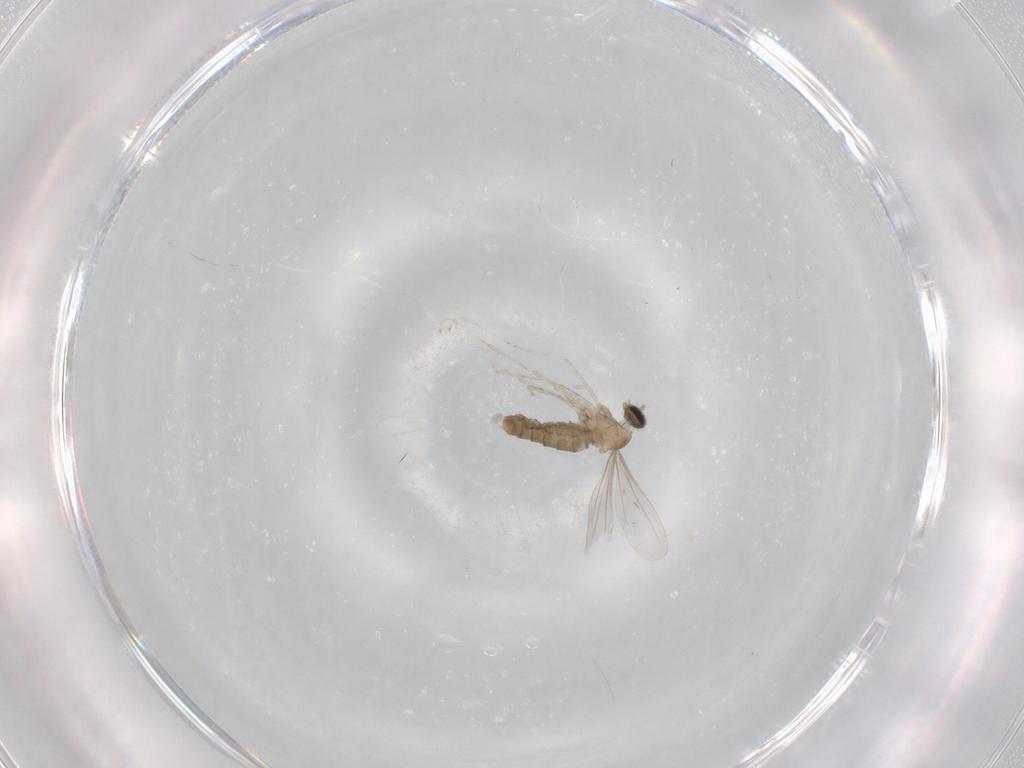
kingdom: Animalia
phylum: Arthropoda
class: Insecta
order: Diptera
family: Cecidomyiidae
